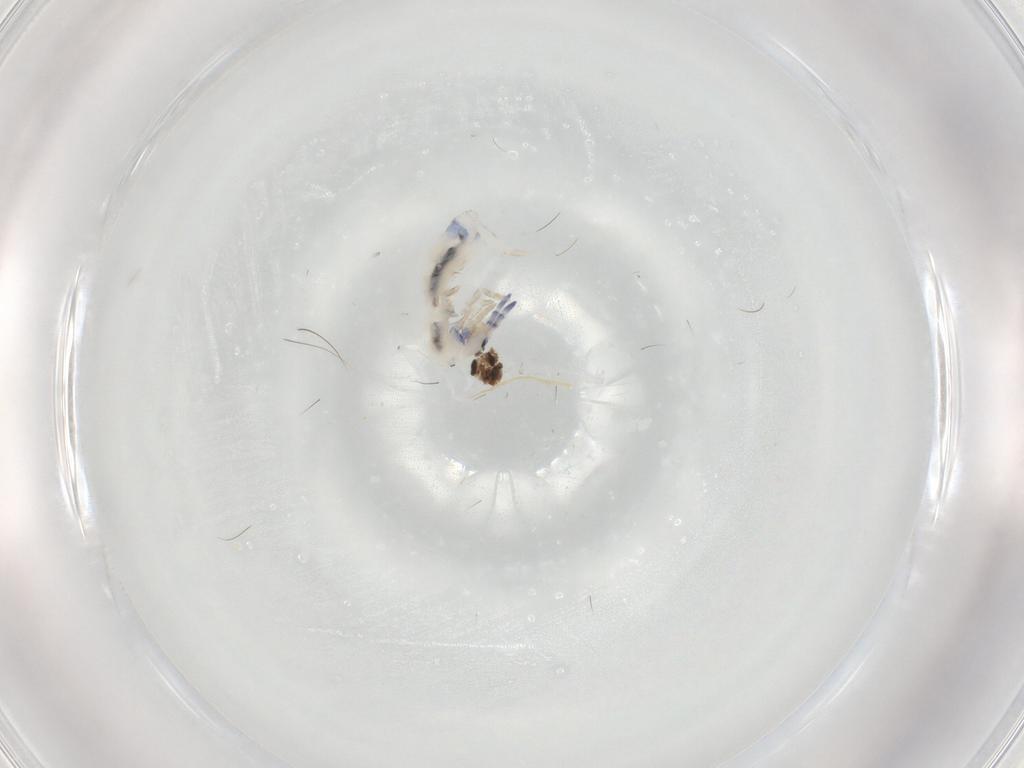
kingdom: Animalia
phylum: Arthropoda
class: Collembola
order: Entomobryomorpha
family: Entomobryidae
